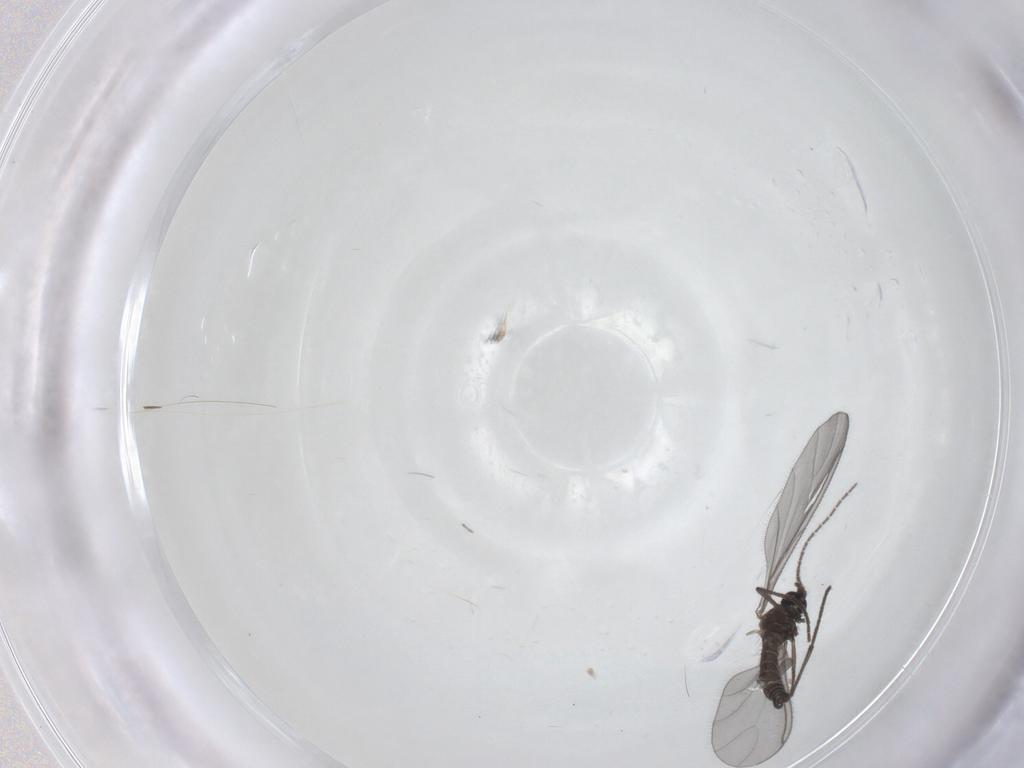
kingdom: Animalia
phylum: Arthropoda
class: Insecta
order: Diptera
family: Sciaridae
